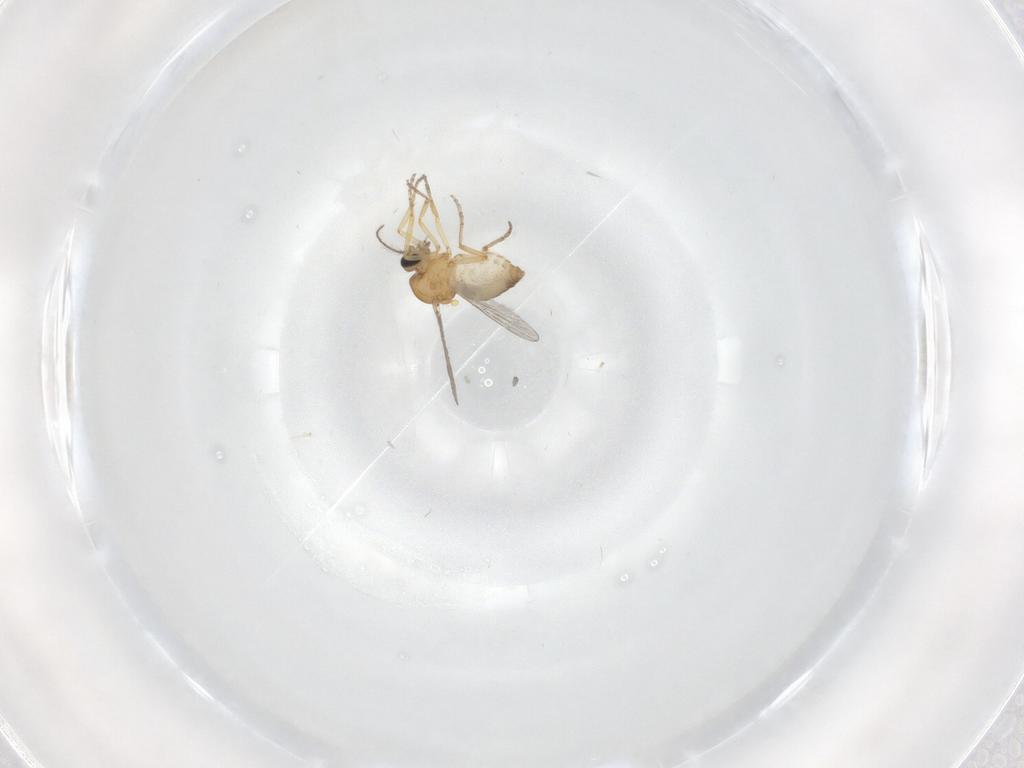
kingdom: Animalia
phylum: Arthropoda
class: Insecta
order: Diptera
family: Ceratopogonidae
